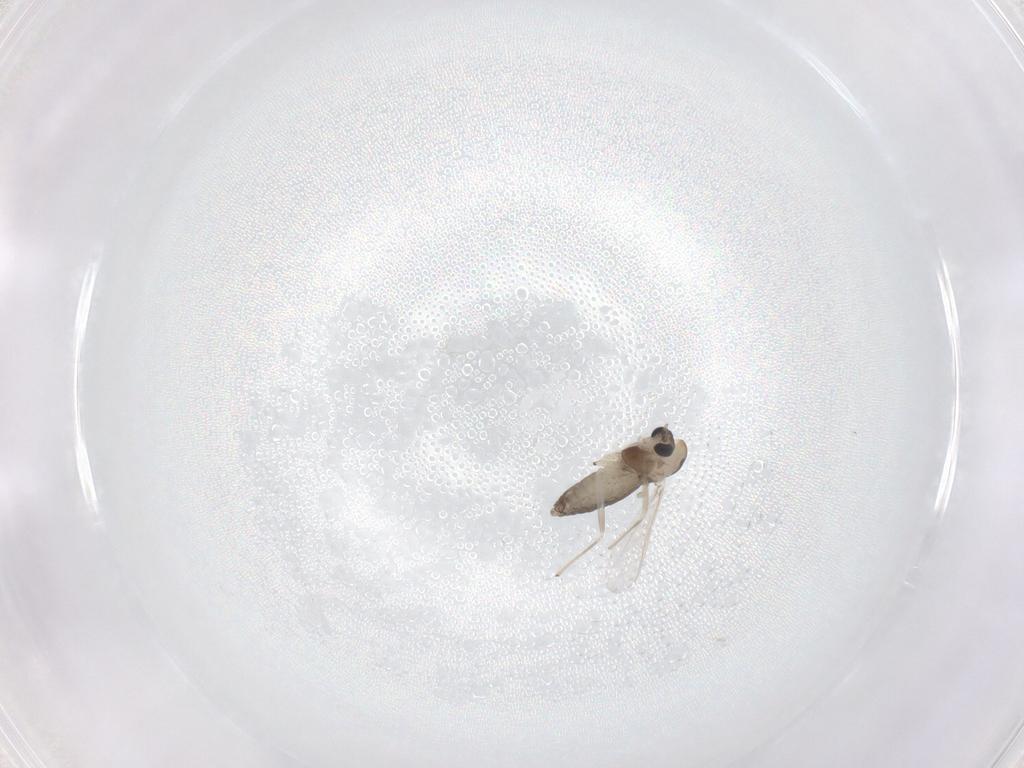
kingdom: Animalia
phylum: Arthropoda
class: Insecta
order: Diptera
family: Chironomidae
